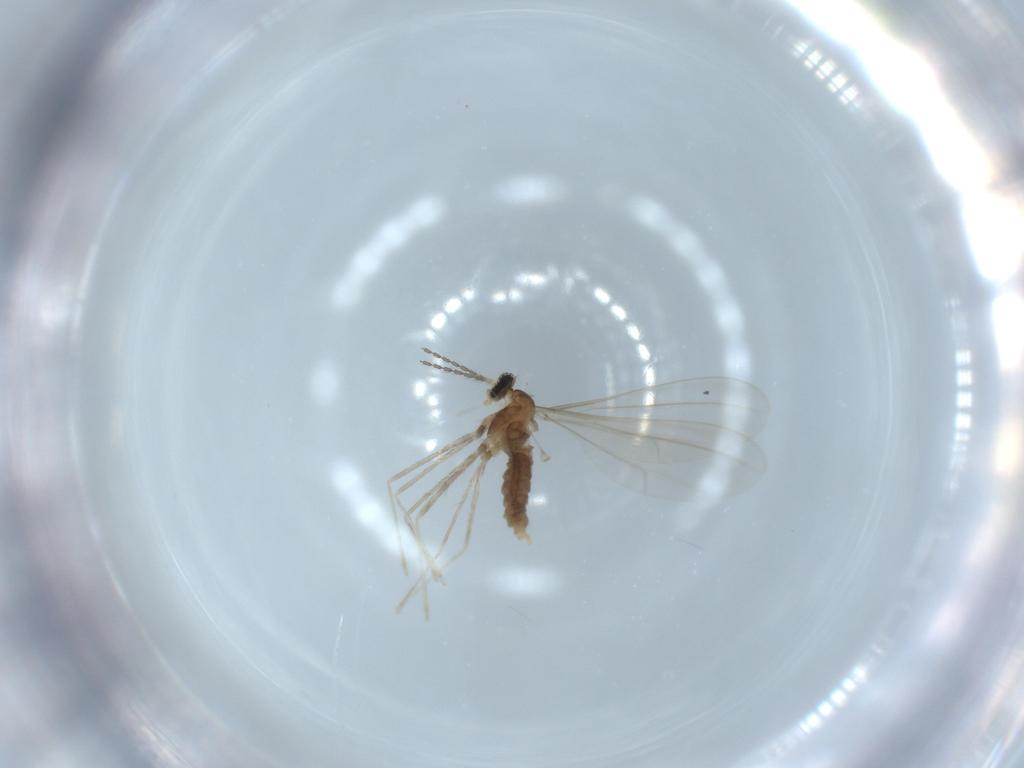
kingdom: Animalia
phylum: Arthropoda
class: Insecta
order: Diptera
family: Cecidomyiidae
